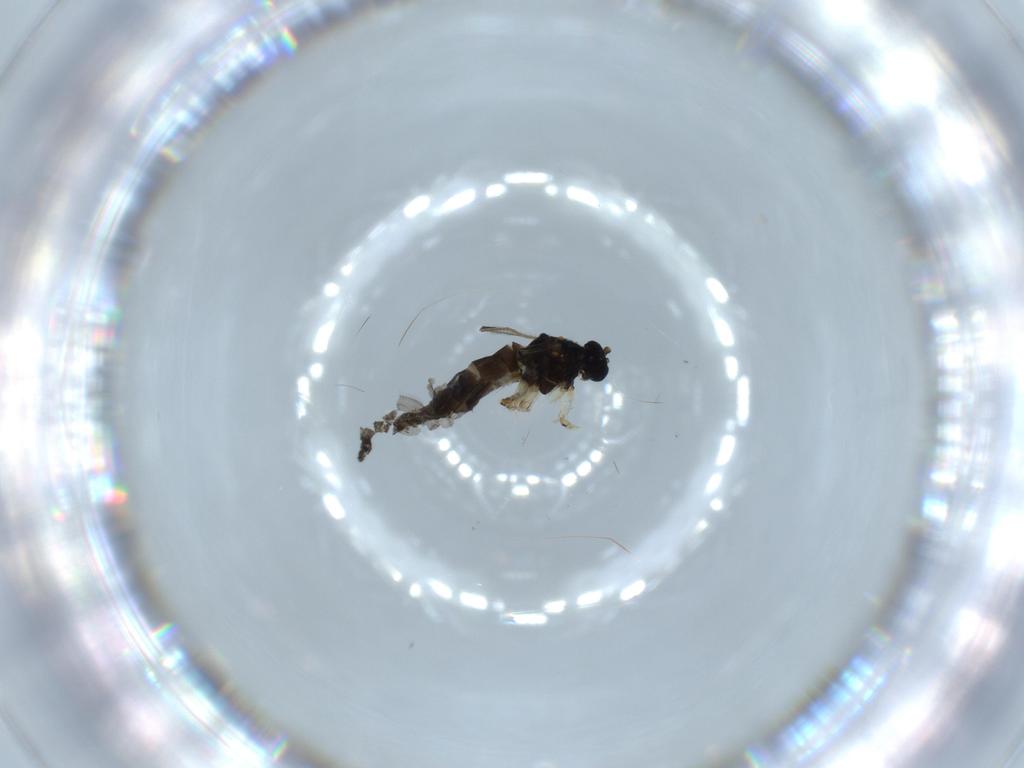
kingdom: Animalia
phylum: Arthropoda
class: Insecta
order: Diptera
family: Sciaridae
